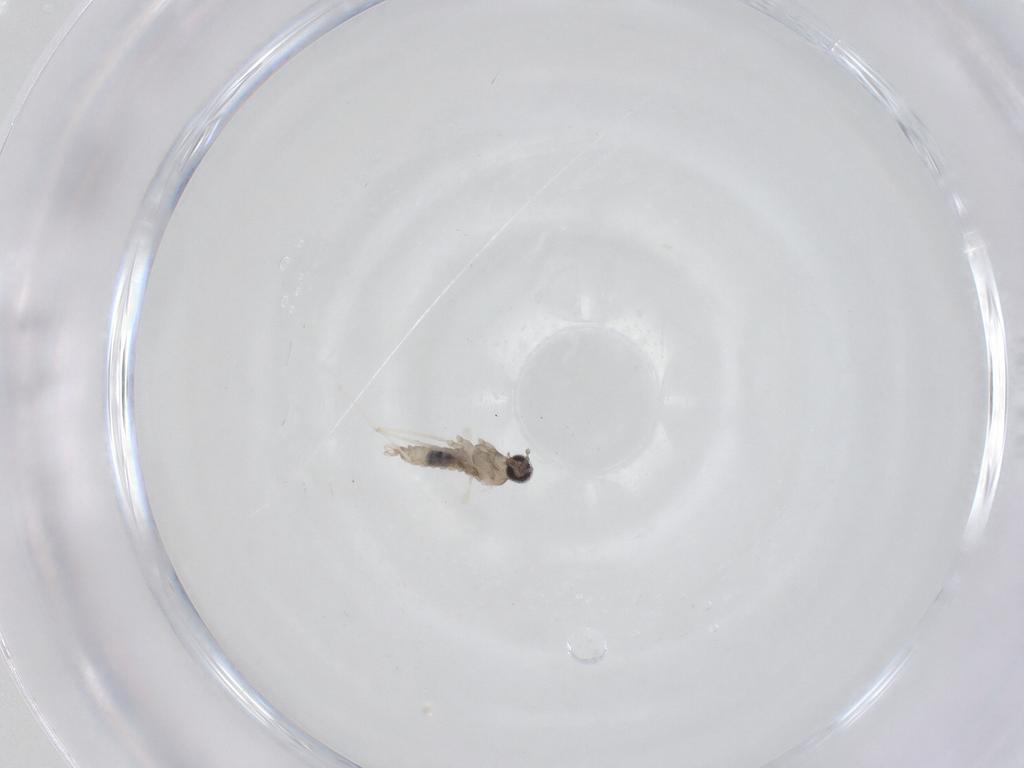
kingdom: Animalia
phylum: Arthropoda
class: Insecta
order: Diptera
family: Cecidomyiidae
